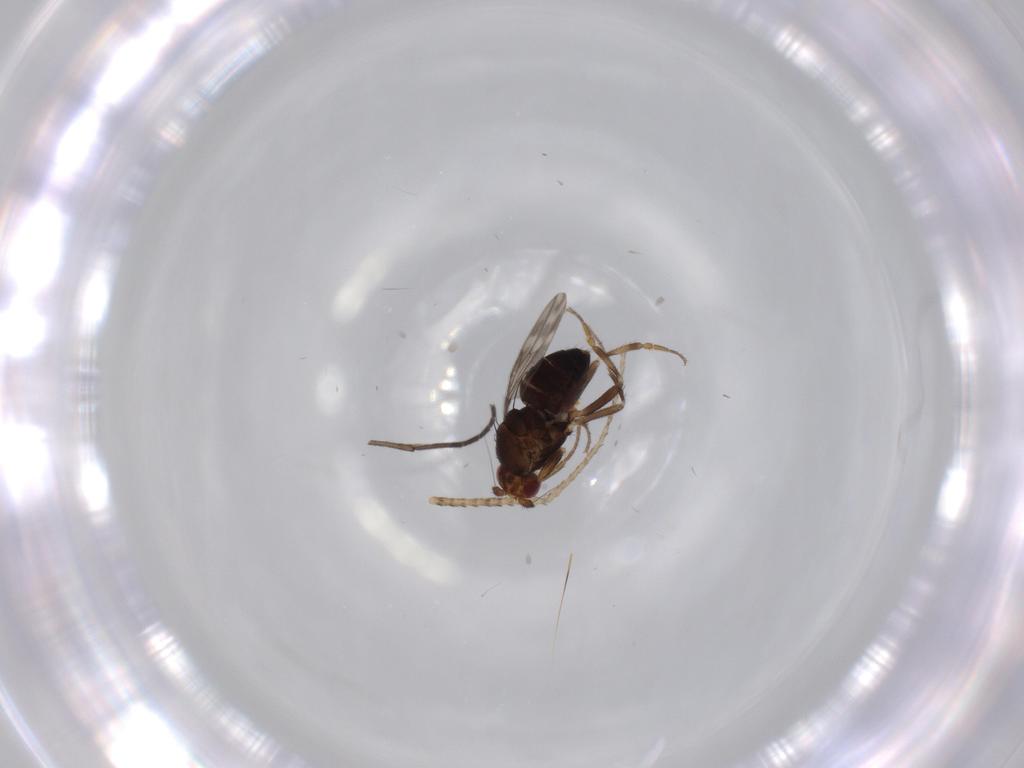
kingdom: Animalia
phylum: Arthropoda
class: Insecta
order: Diptera
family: Sphaeroceridae
